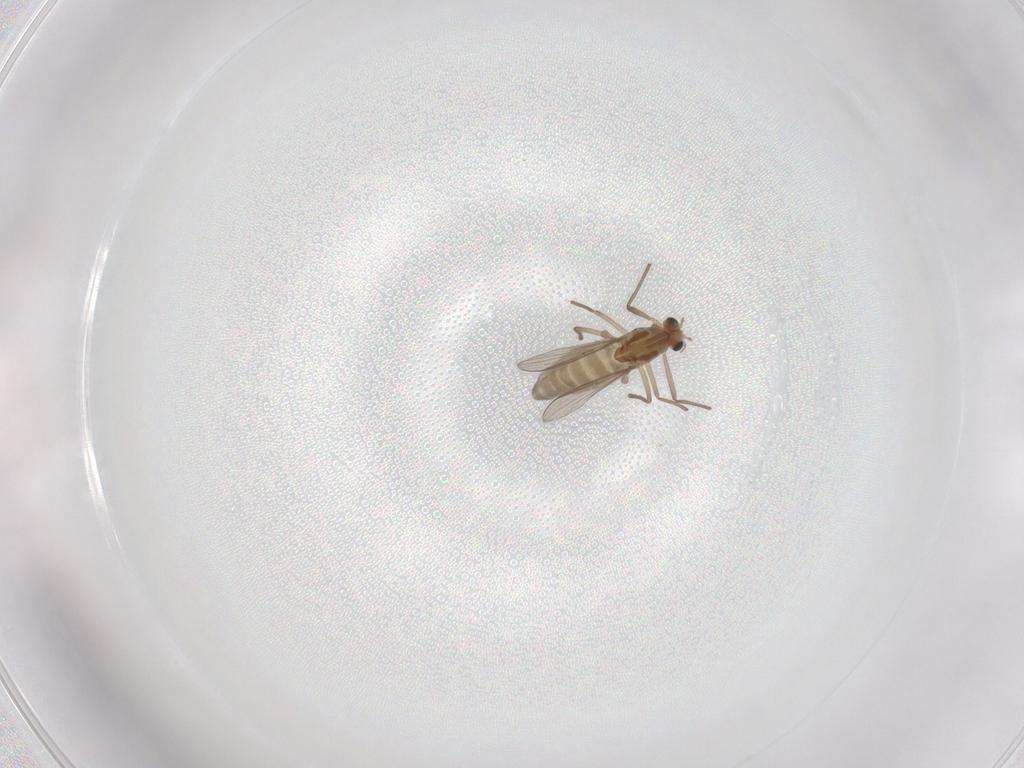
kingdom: Animalia
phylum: Arthropoda
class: Insecta
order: Diptera
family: Chironomidae
